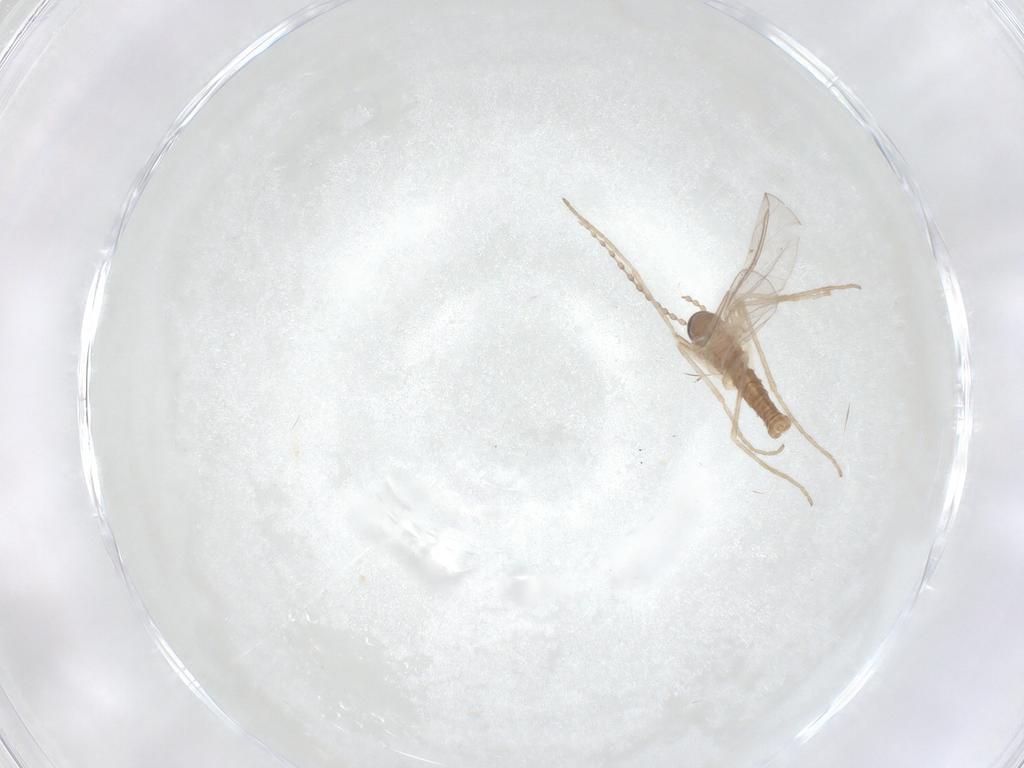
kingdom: Animalia
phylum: Arthropoda
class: Insecta
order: Diptera
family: Cecidomyiidae
